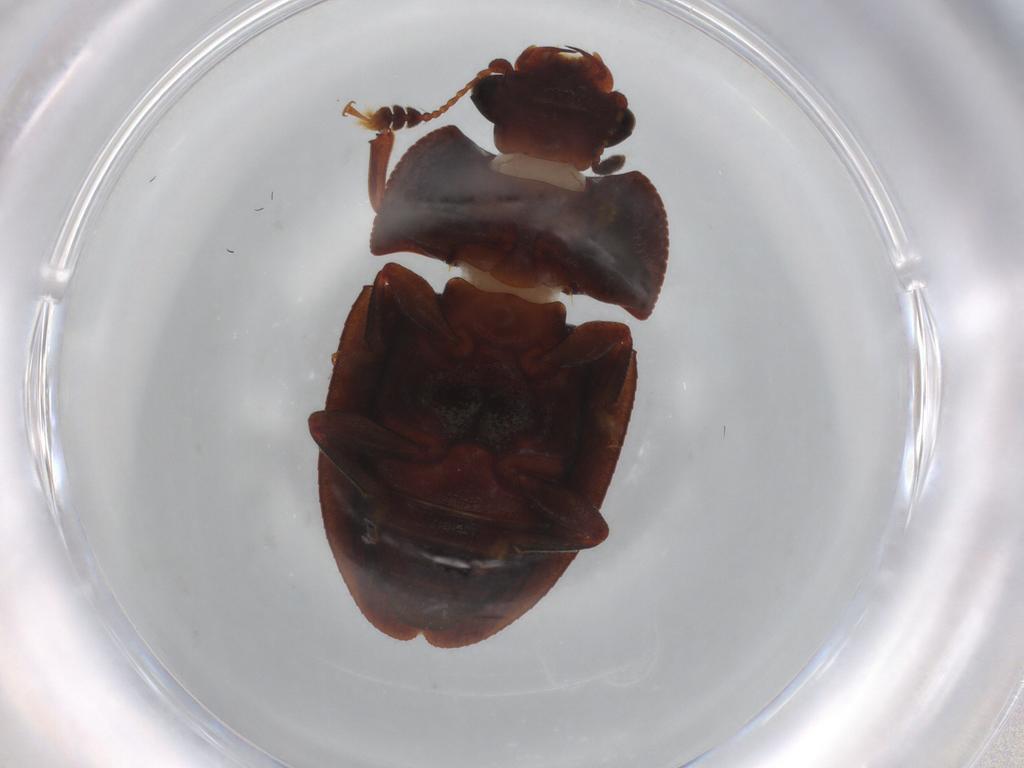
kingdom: Animalia
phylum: Arthropoda
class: Insecta
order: Coleoptera
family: Nitidulidae
